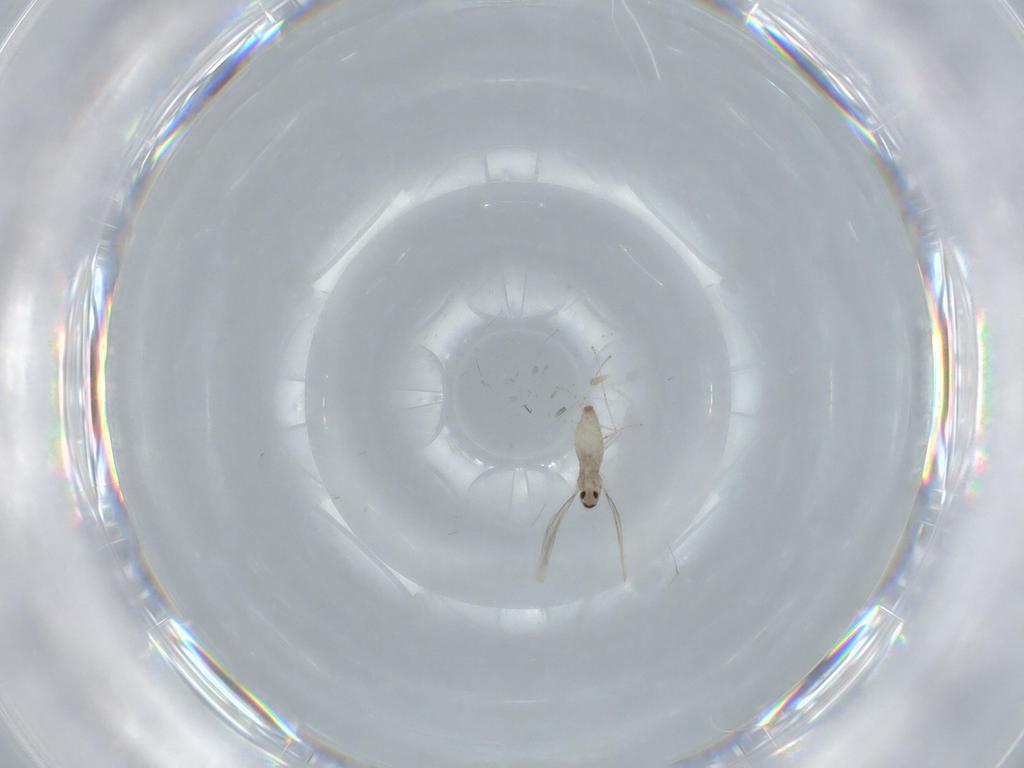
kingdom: Animalia
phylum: Arthropoda
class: Insecta
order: Diptera
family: Cecidomyiidae
